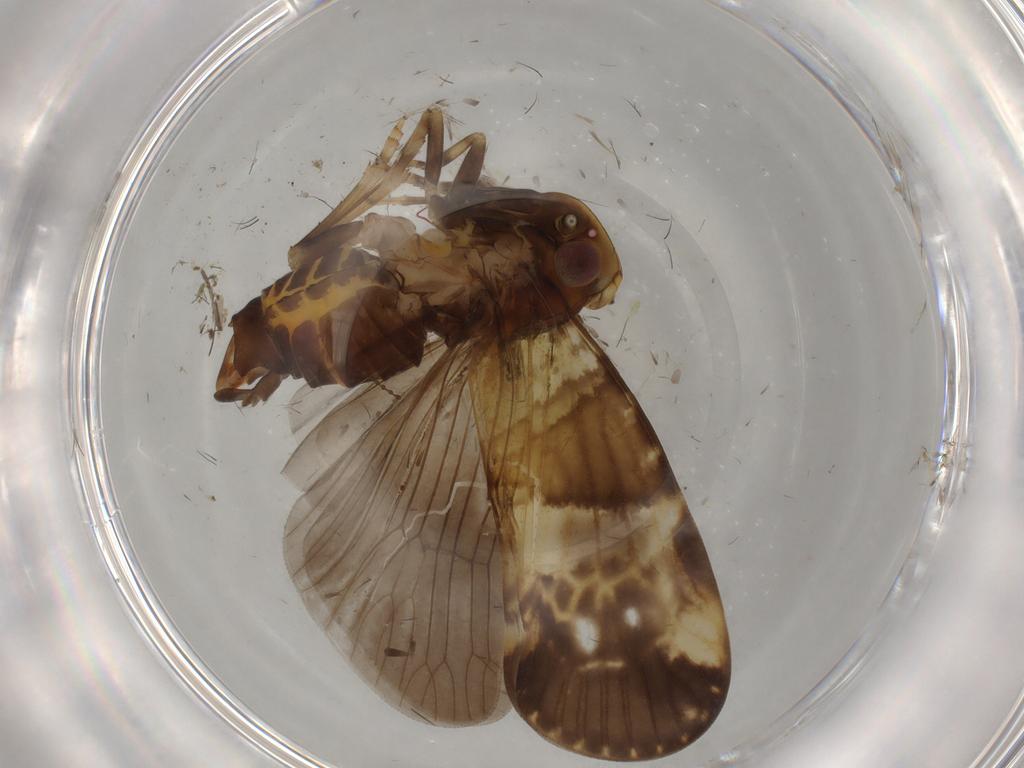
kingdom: Animalia
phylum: Arthropoda
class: Insecta
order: Hemiptera
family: Cixiidae
